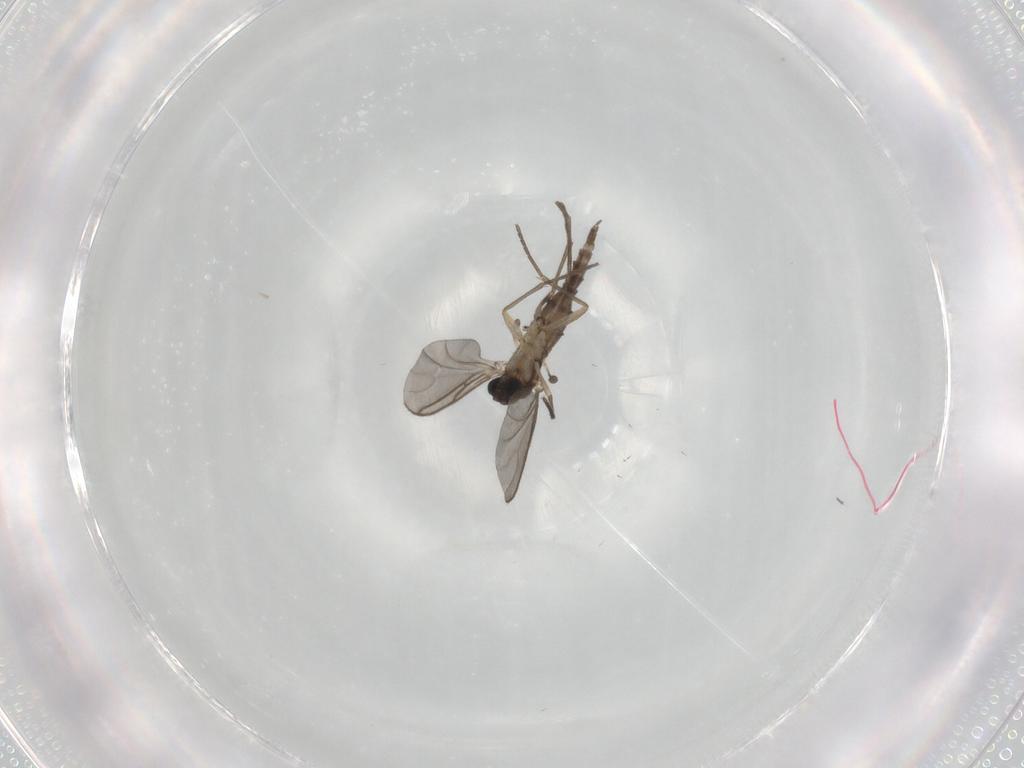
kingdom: Animalia
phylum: Arthropoda
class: Insecta
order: Diptera
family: Sciaridae
